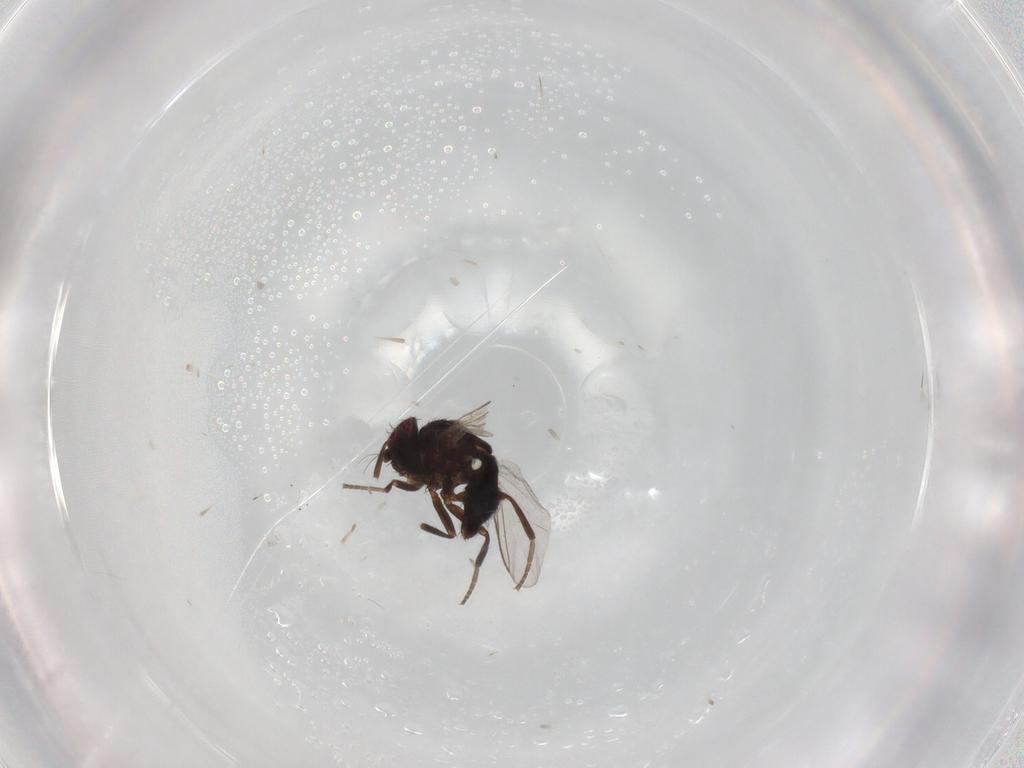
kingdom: Animalia
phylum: Arthropoda
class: Insecta
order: Diptera
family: Agromyzidae
